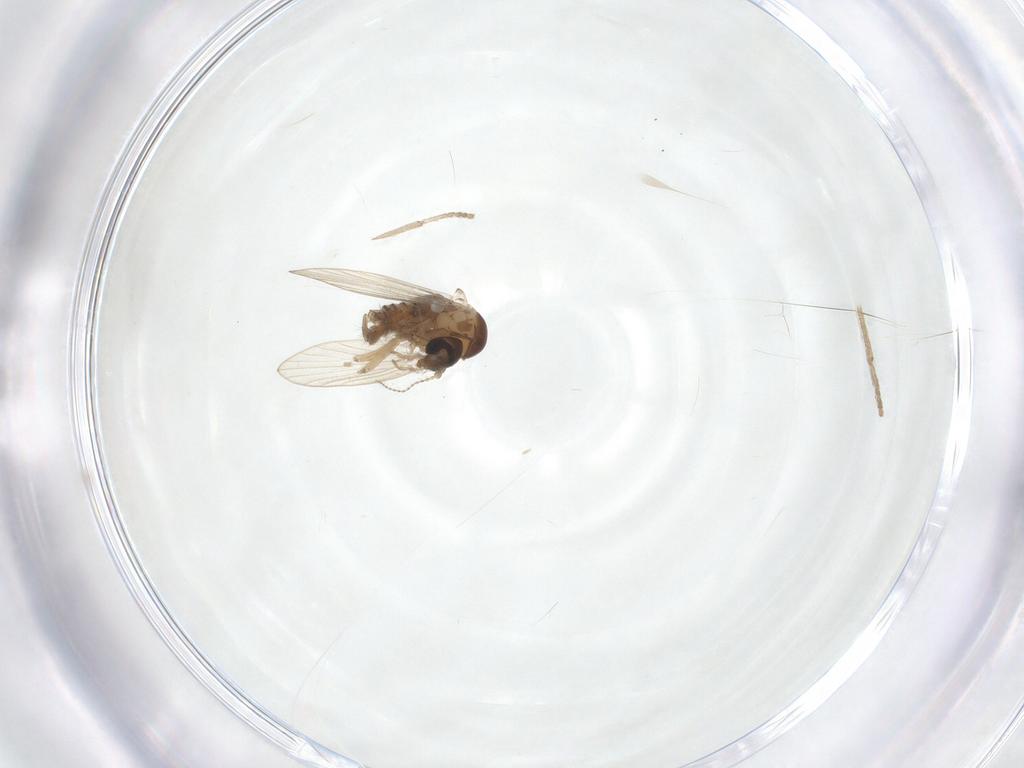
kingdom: Animalia
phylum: Arthropoda
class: Insecta
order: Diptera
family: Psychodidae
